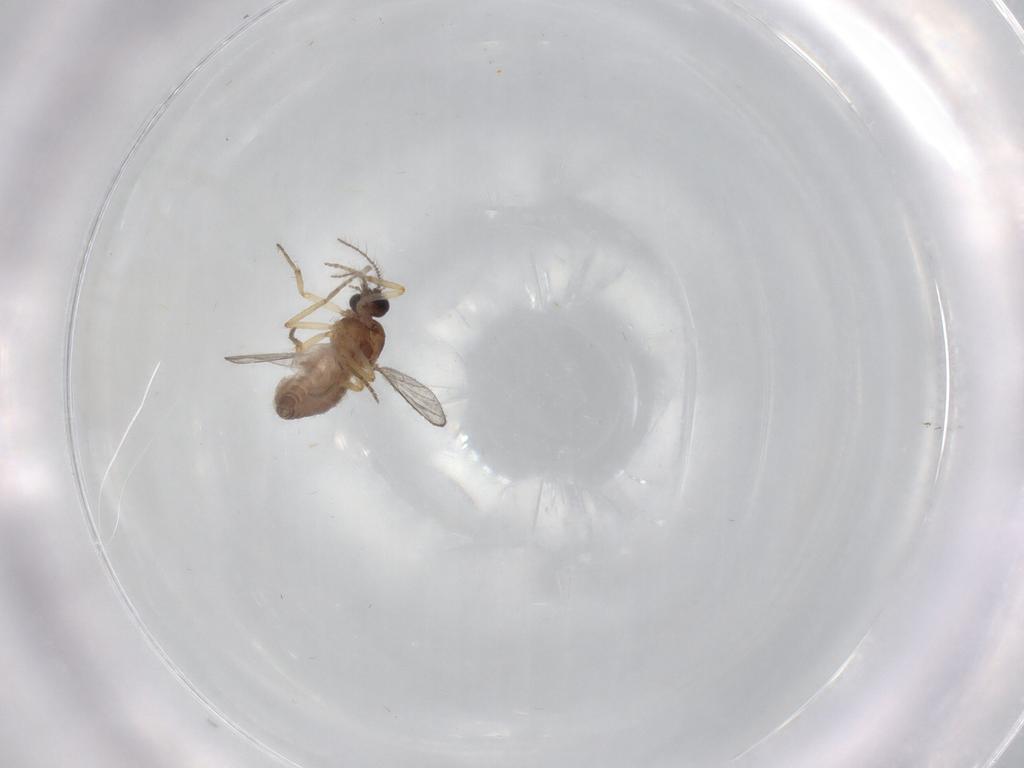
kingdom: Animalia
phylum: Arthropoda
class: Insecta
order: Diptera
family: Clusiidae
